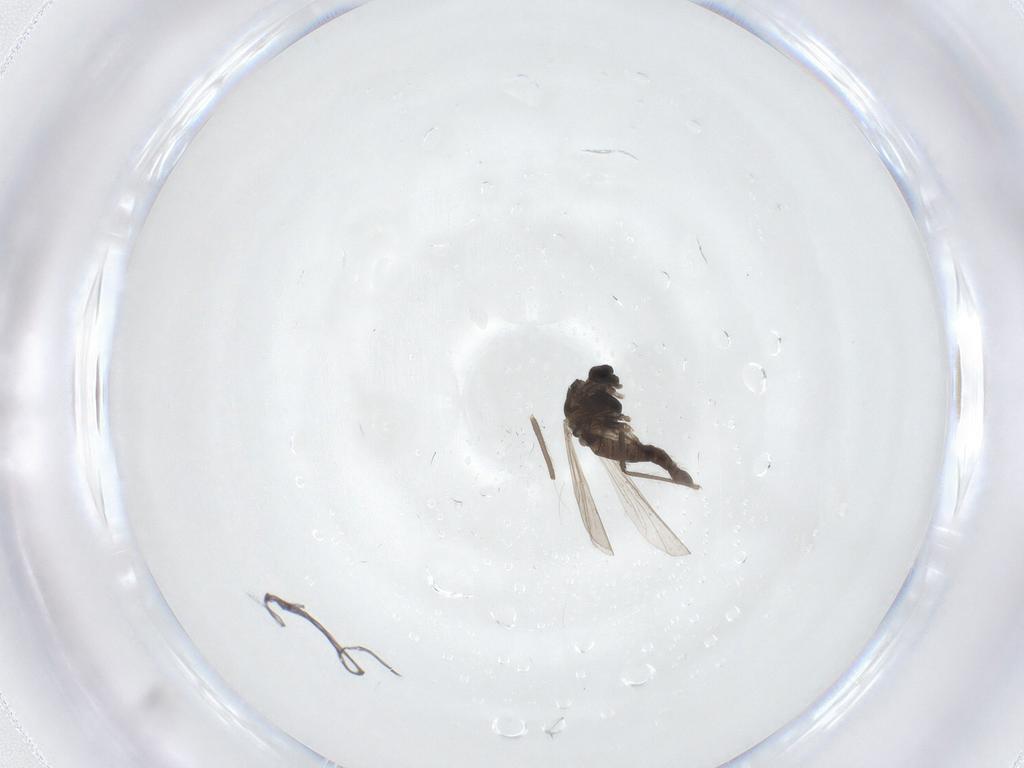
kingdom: Animalia
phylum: Arthropoda
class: Insecta
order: Diptera
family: Chironomidae
